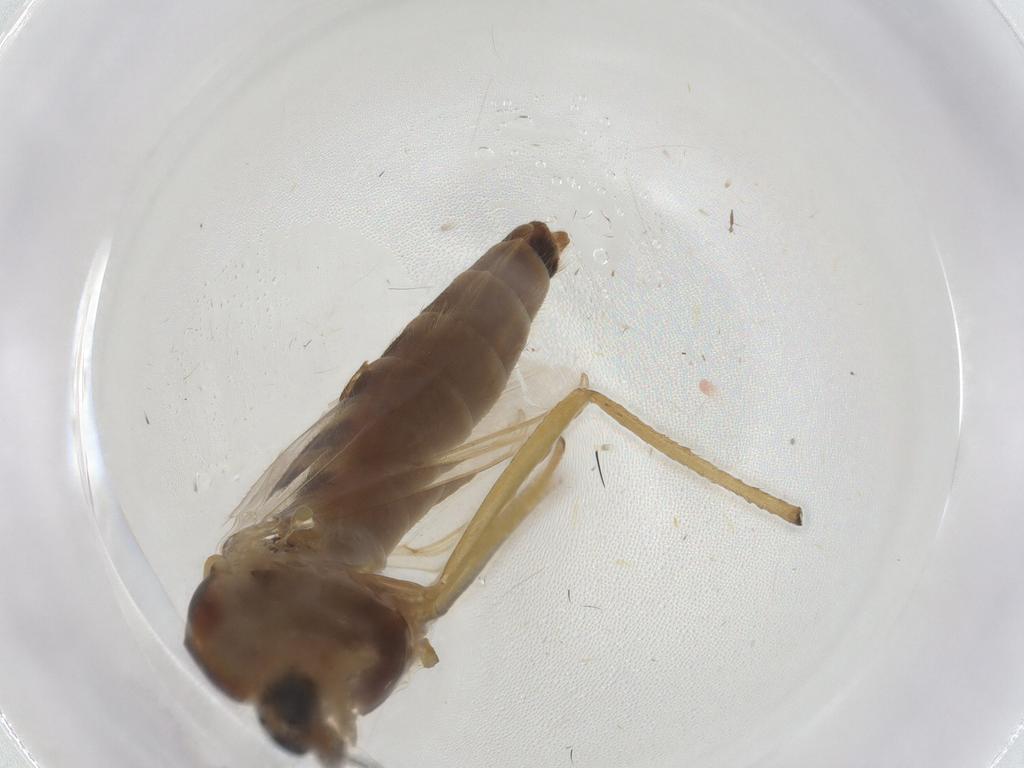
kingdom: Animalia
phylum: Arthropoda
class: Insecta
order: Diptera
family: Chironomidae
